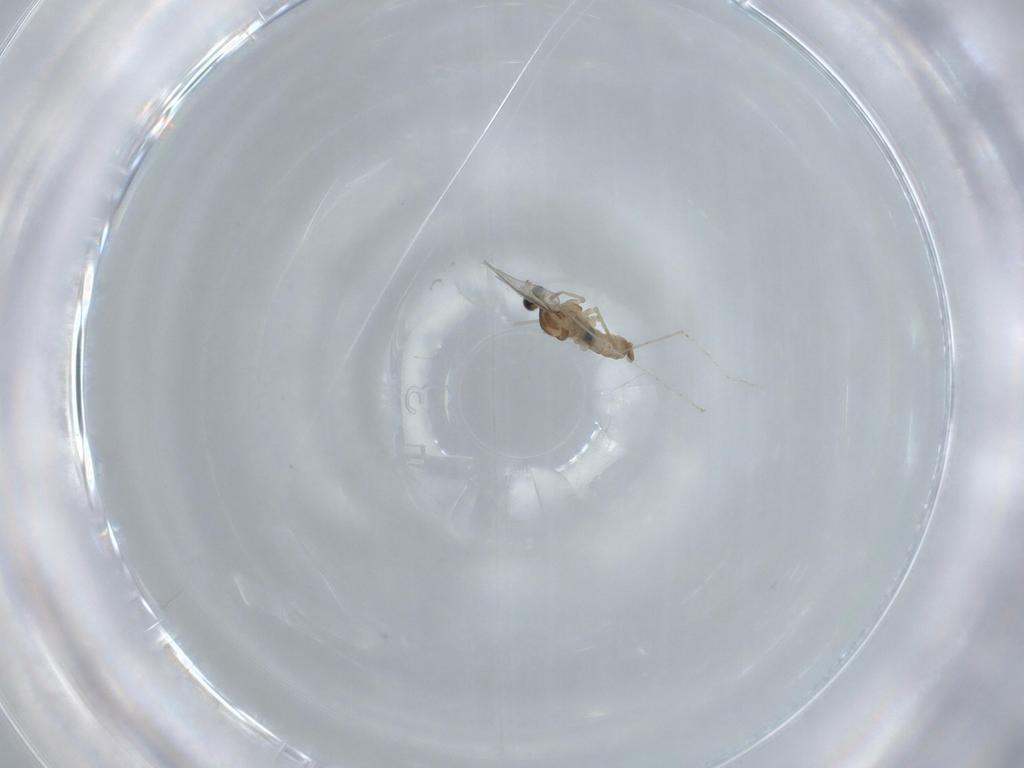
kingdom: Animalia
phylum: Arthropoda
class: Insecta
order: Diptera
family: Cecidomyiidae
